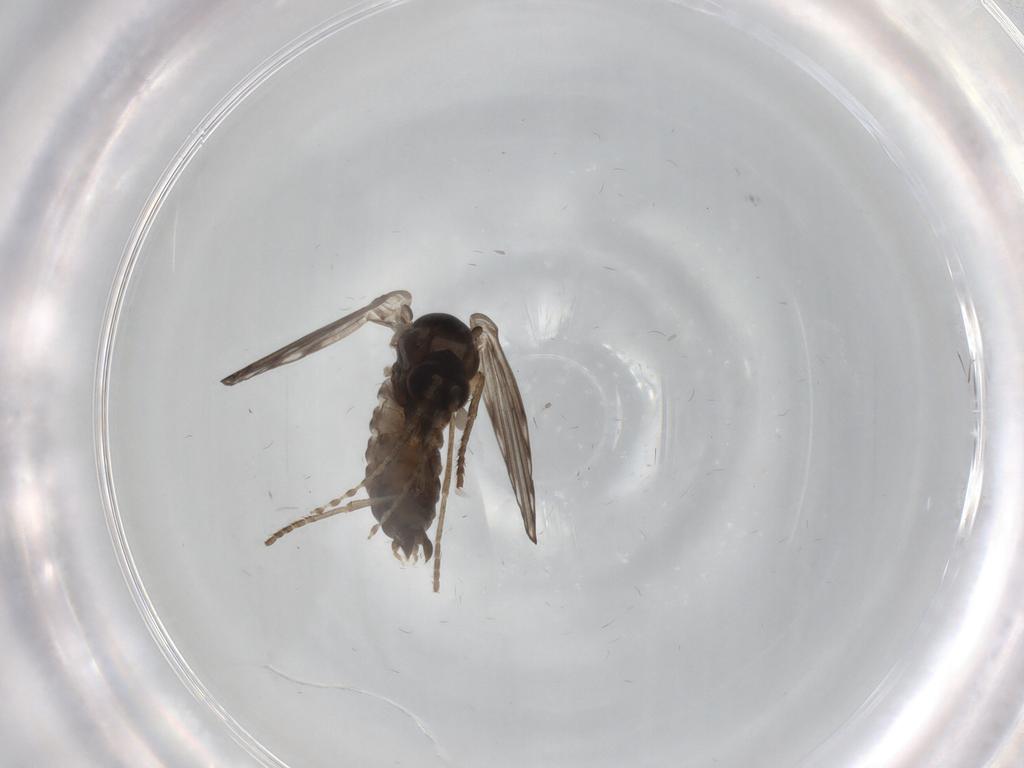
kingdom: Animalia
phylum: Arthropoda
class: Insecta
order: Diptera
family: Psychodidae
